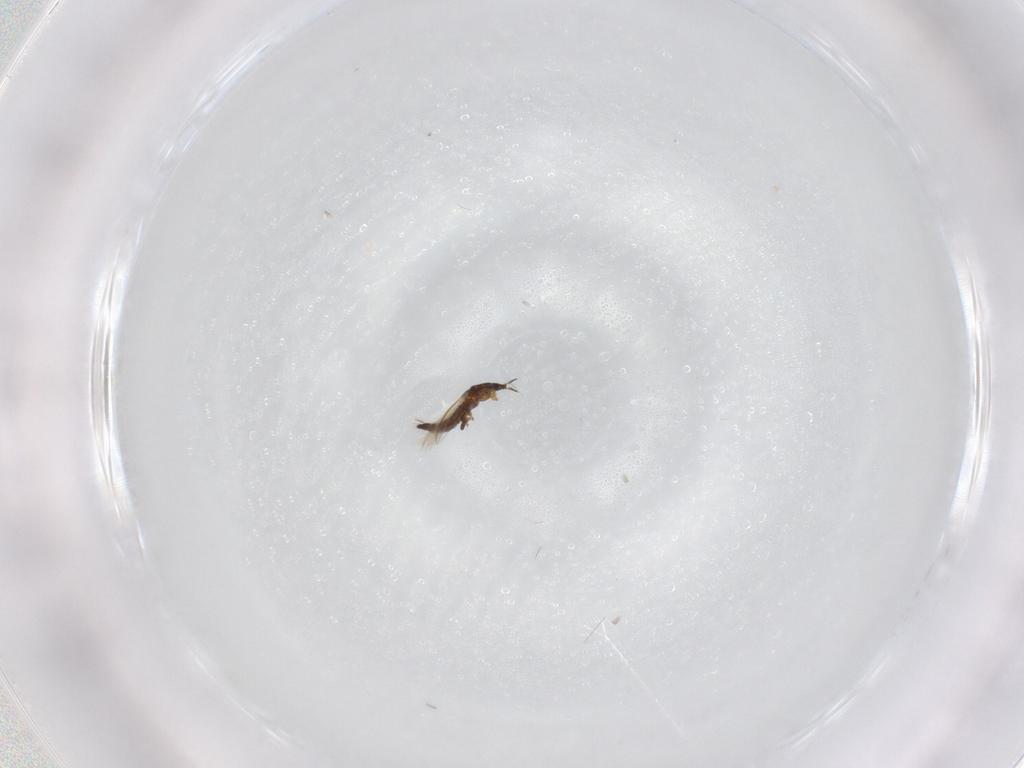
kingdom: Animalia
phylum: Arthropoda
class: Insecta
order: Hemiptera
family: Aleyrodidae
